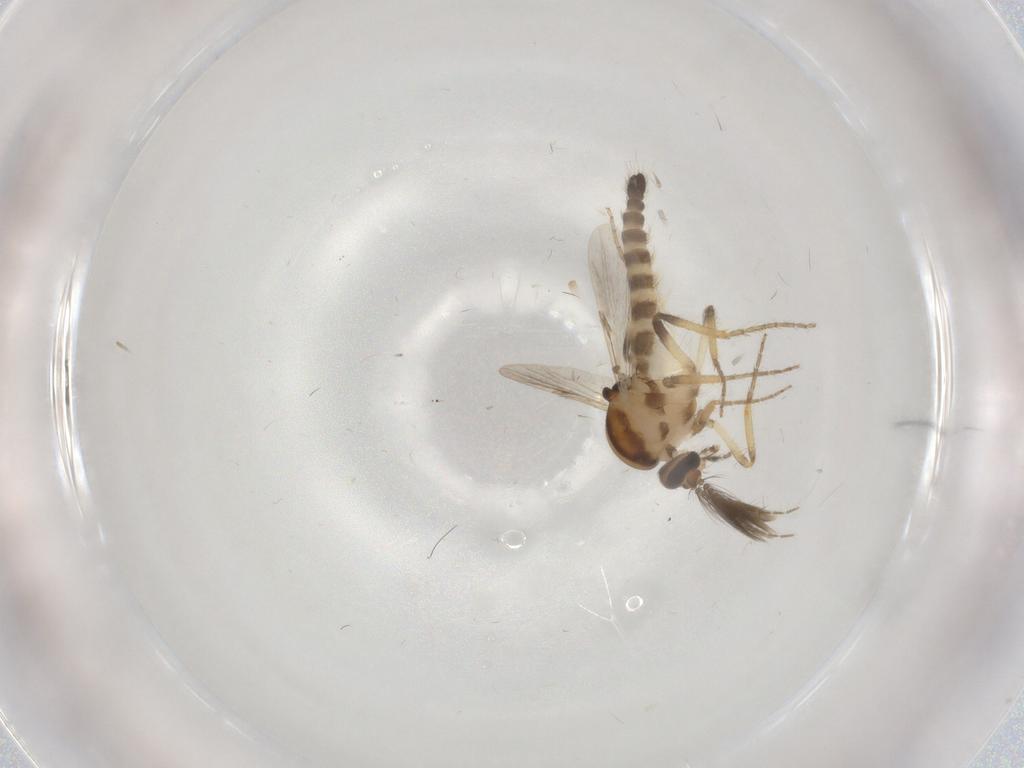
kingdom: Animalia
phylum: Arthropoda
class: Insecta
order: Diptera
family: Ceratopogonidae
